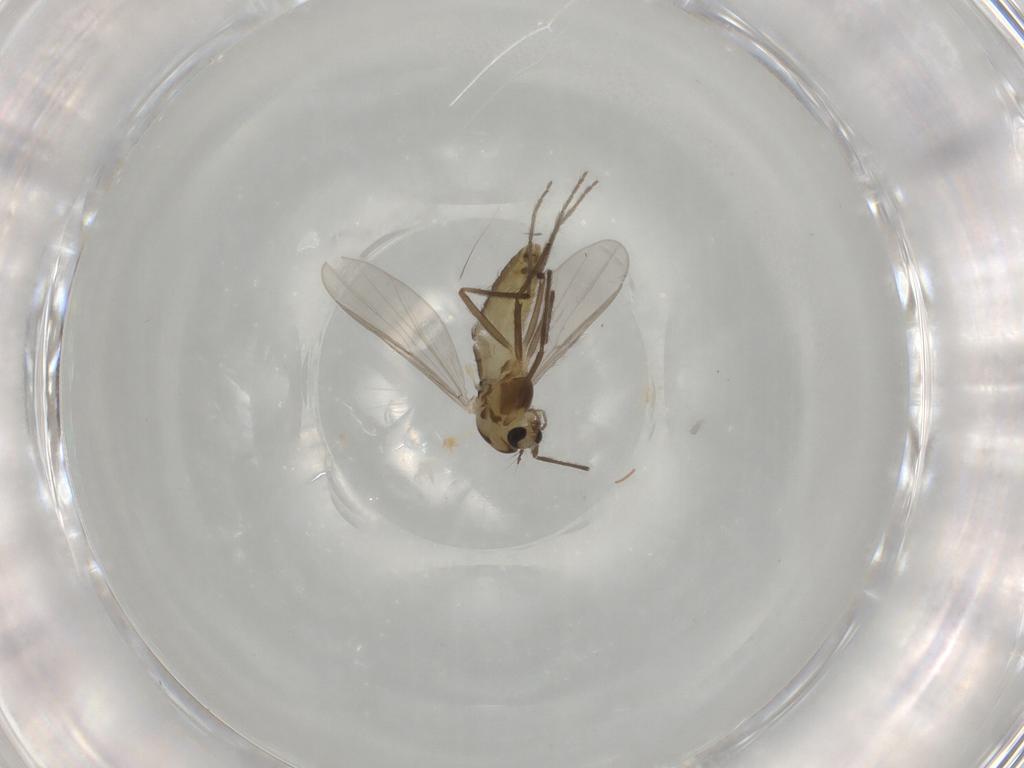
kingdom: Animalia
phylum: Arthropoda
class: Insecta
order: Diptera
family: Chironomidae
